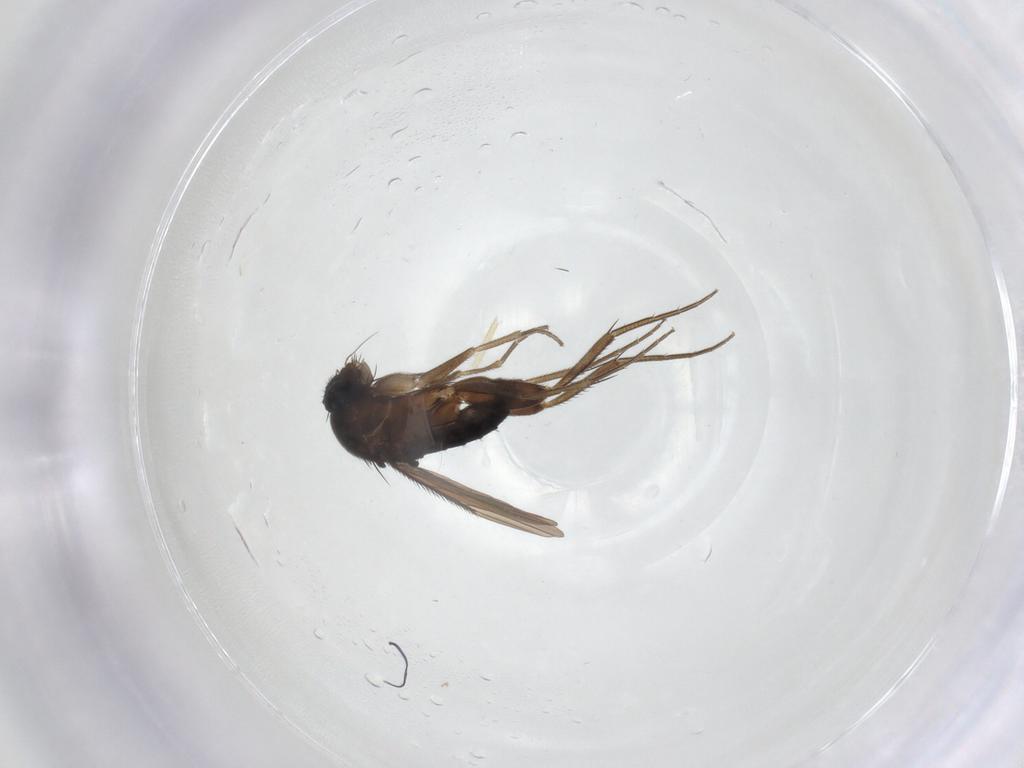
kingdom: Animalia
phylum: Arthropoda
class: Insecta
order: Diptera
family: Phoridae
